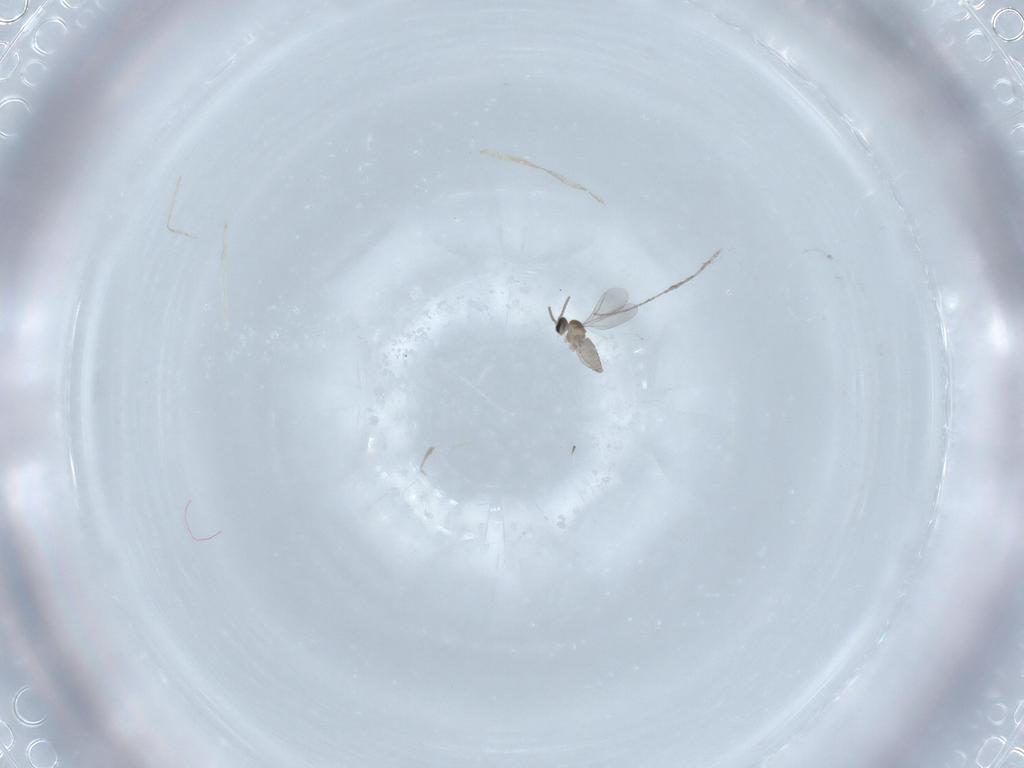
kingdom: Animalia
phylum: Arthropoda
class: Insecta
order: Diptera
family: Cecidomyiidae
